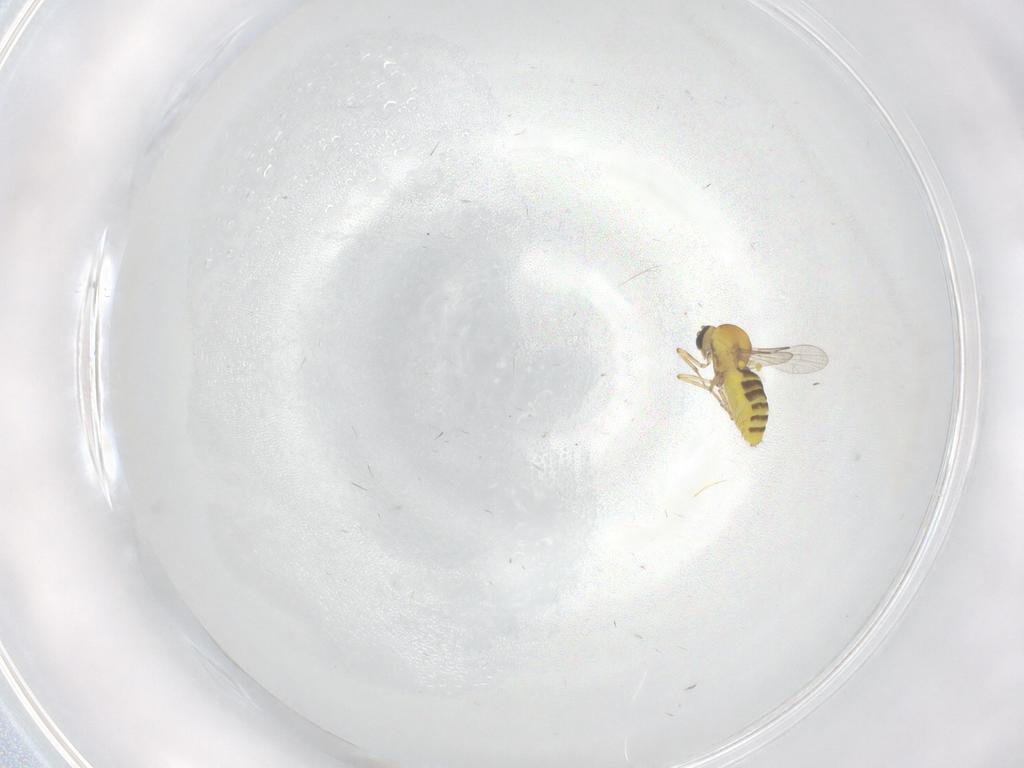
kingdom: Animalia
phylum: Arthropoda
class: Insecta
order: Diptera
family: Ceratopogonidae
